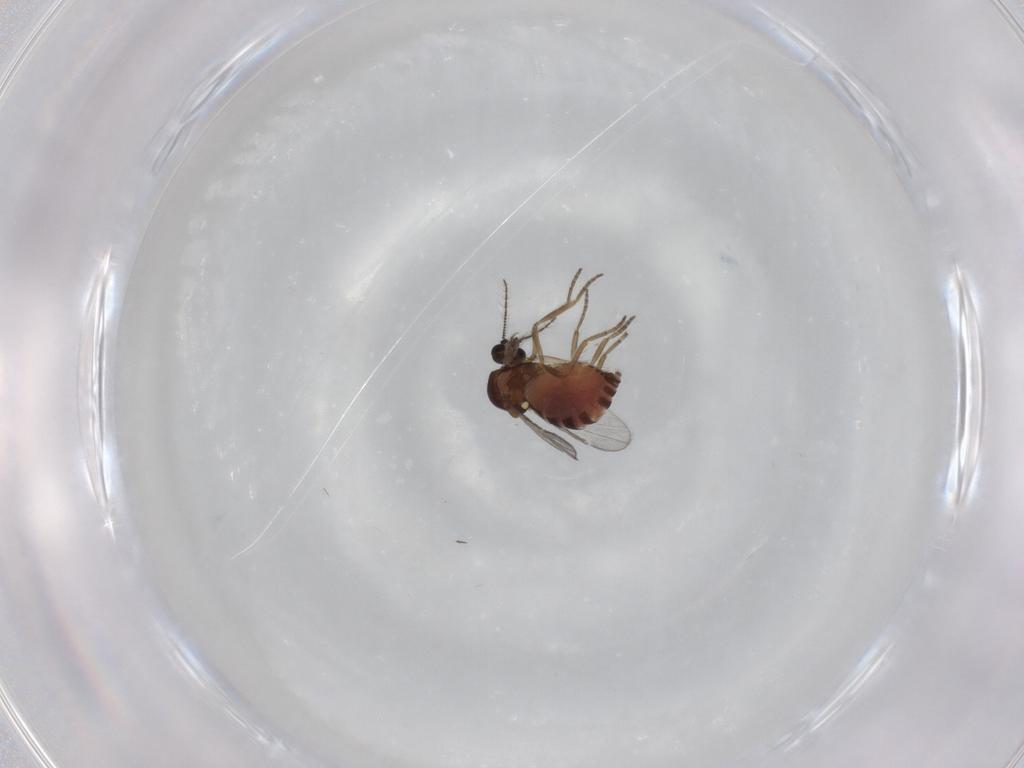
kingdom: Animalia
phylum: Arthropoda
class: Insecta
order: Diptera
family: Ceratopogonidae
